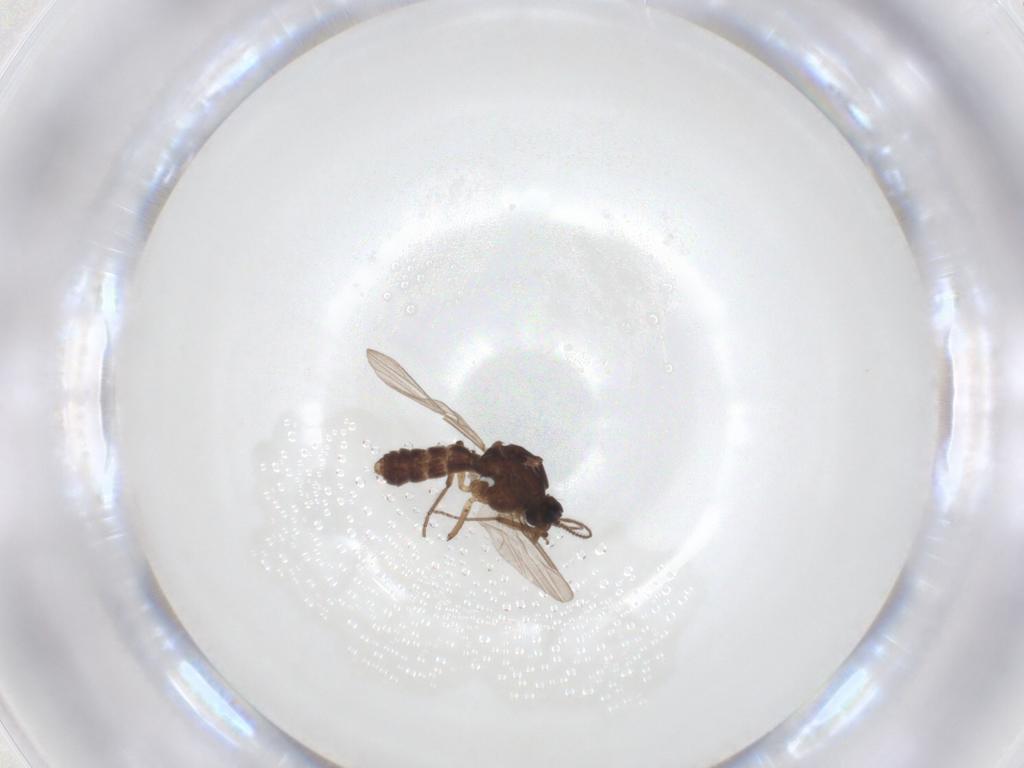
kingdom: Animalia
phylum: Arthropoda
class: Insecta
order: Diptera
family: Ceratopogonidae
